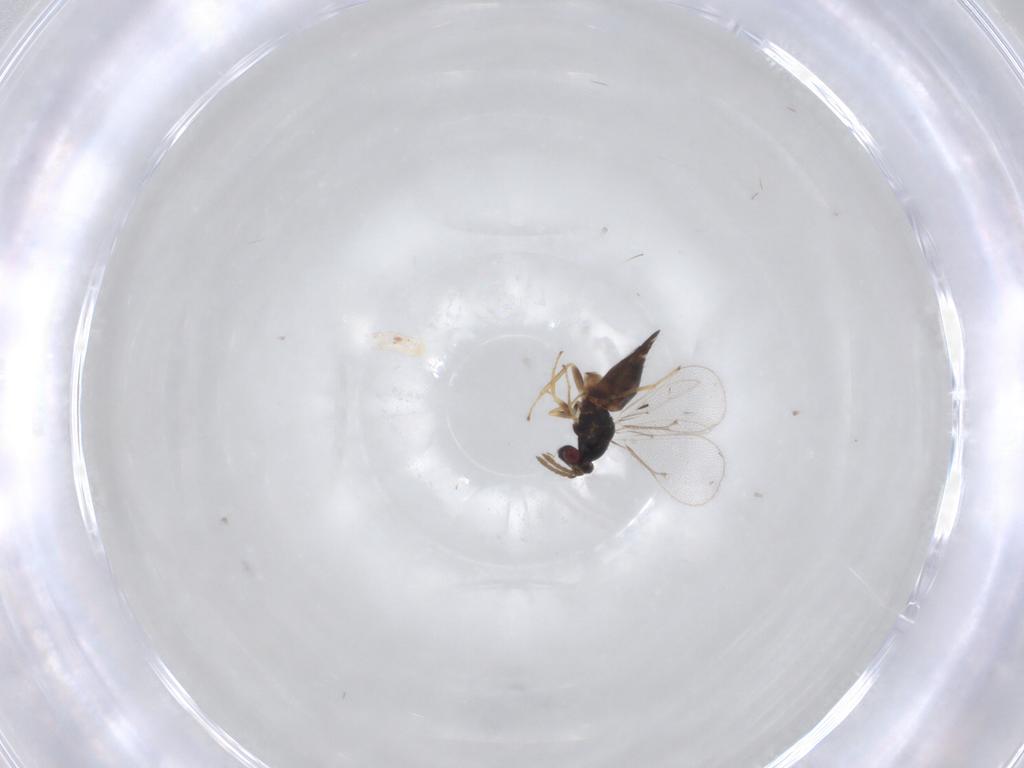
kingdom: Animalia
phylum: Arthropoda
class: Insecta
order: Hymenoptera
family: Eulophidae
